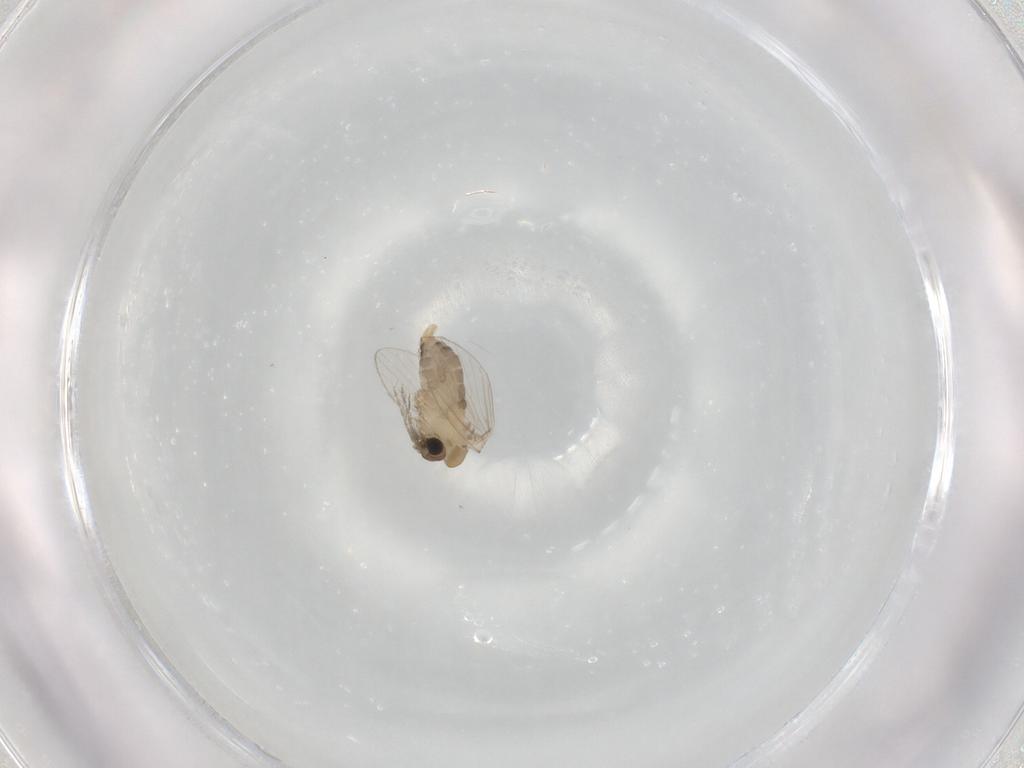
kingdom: Animalia
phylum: Arthropoda
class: Insecta
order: Diptera
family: Psychodidae
